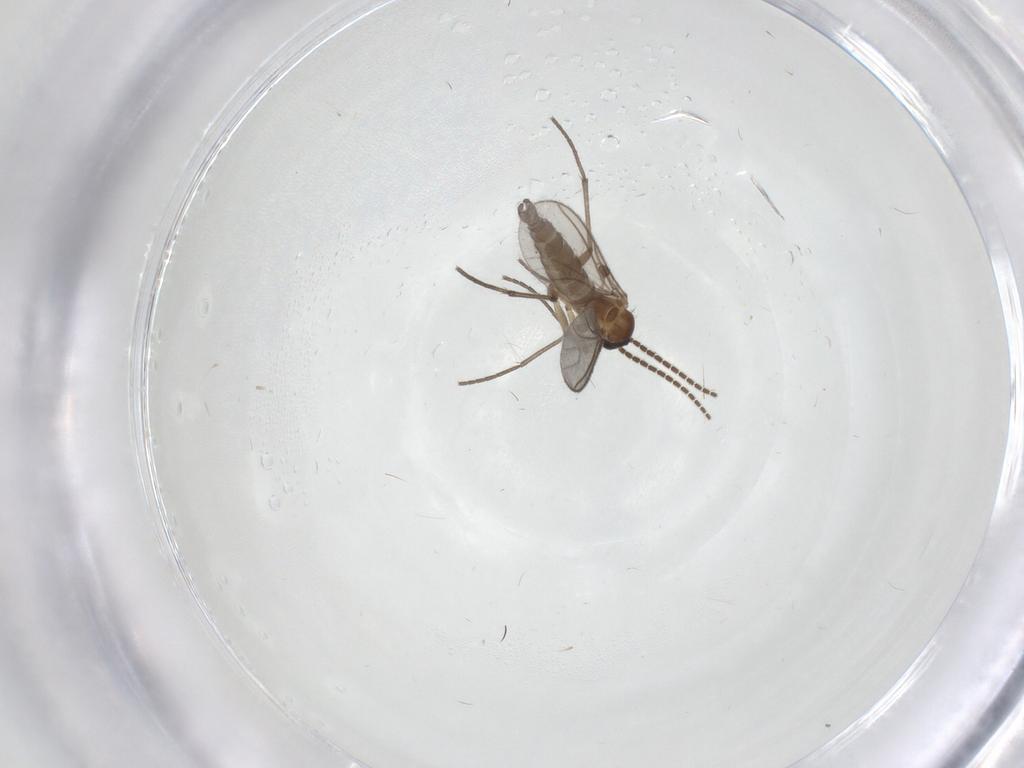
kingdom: Animalia
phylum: Arthropoda
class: Insecta
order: Diptera
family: Sciaridae
